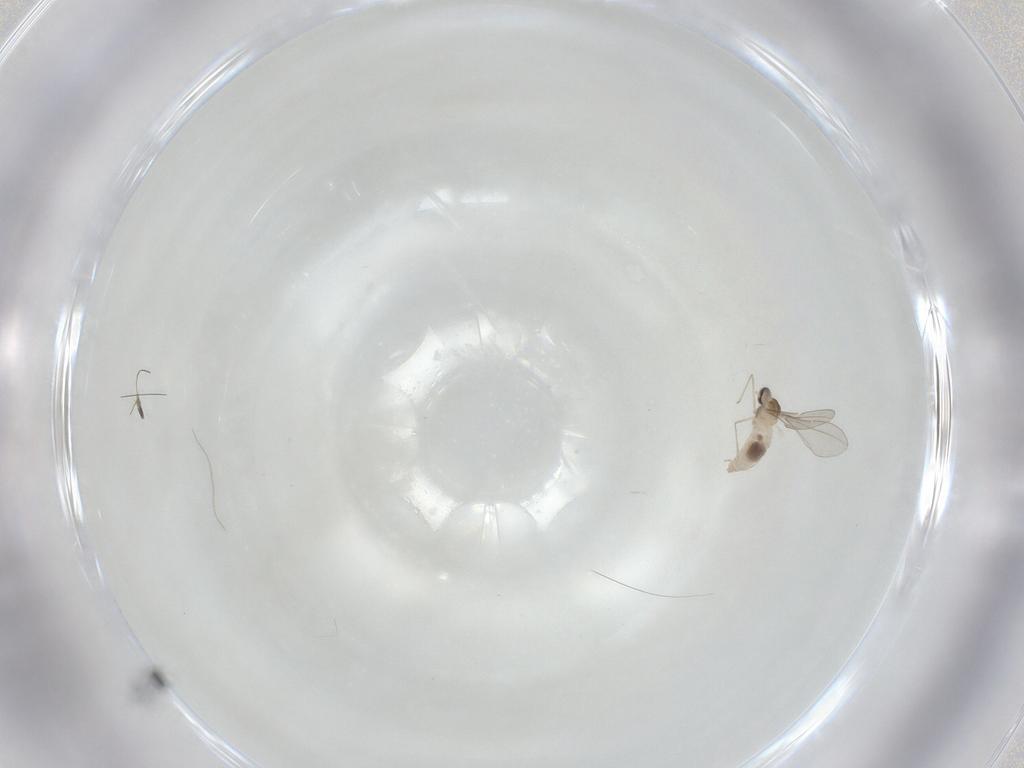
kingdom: Animalia
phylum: Arthropoda
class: Insecta
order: Diptera
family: Cecidomyiidae
